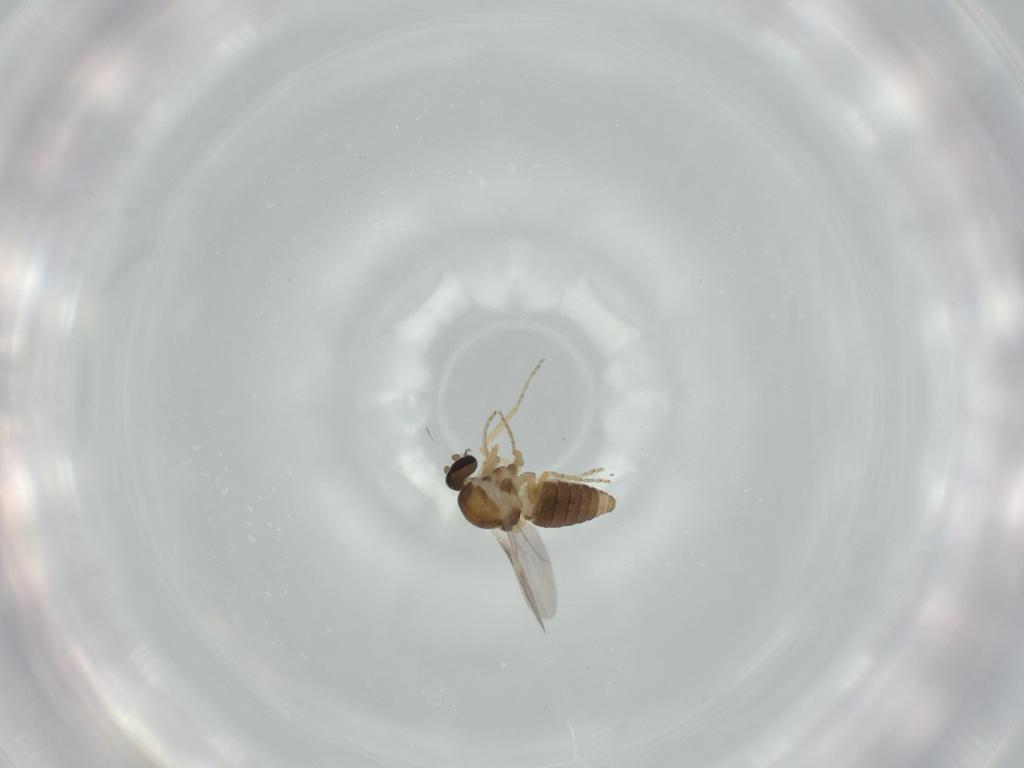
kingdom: Animalia
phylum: Arthropoda
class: Insecta
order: Diptera
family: Ceratopogonidae
